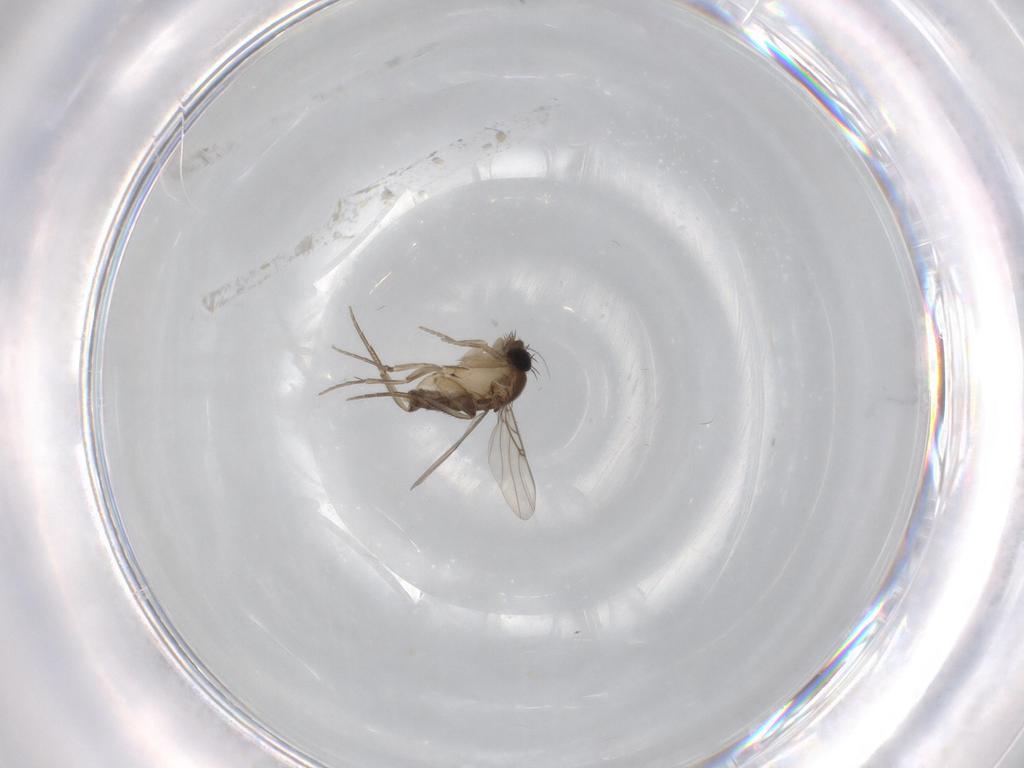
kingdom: Animalia
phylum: Arthropoda
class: Insecta
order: Diptera
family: Phoridae
